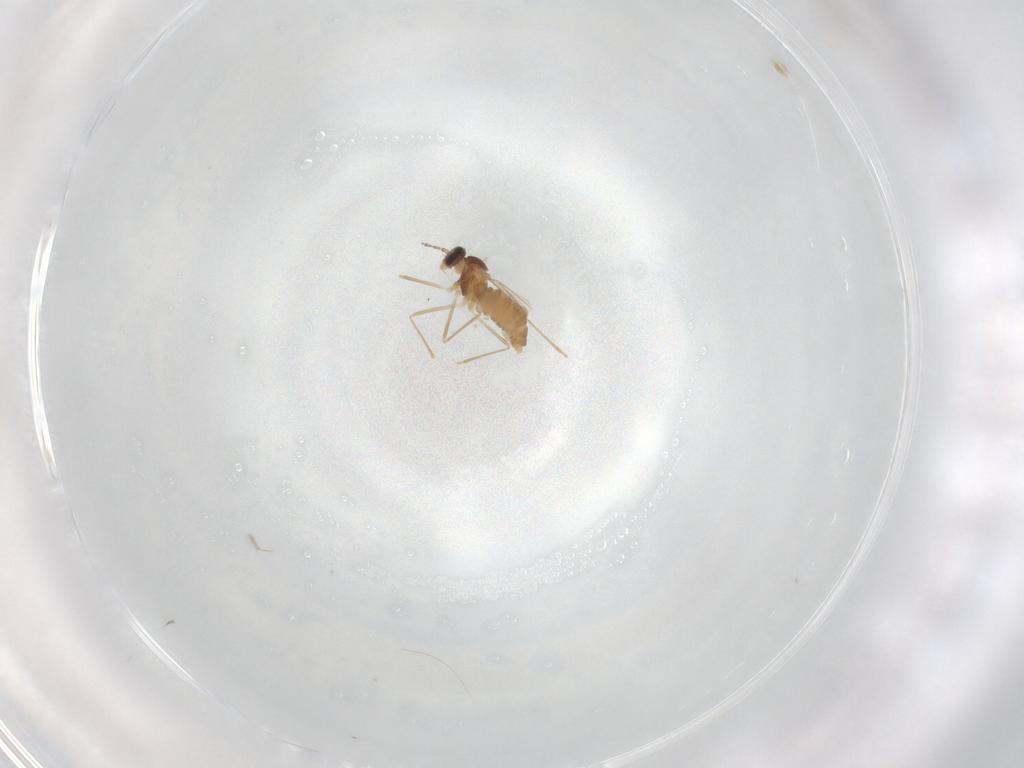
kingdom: Animalia
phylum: Arthropoda
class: Insecta
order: Diptera
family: Cecidomyiidae
